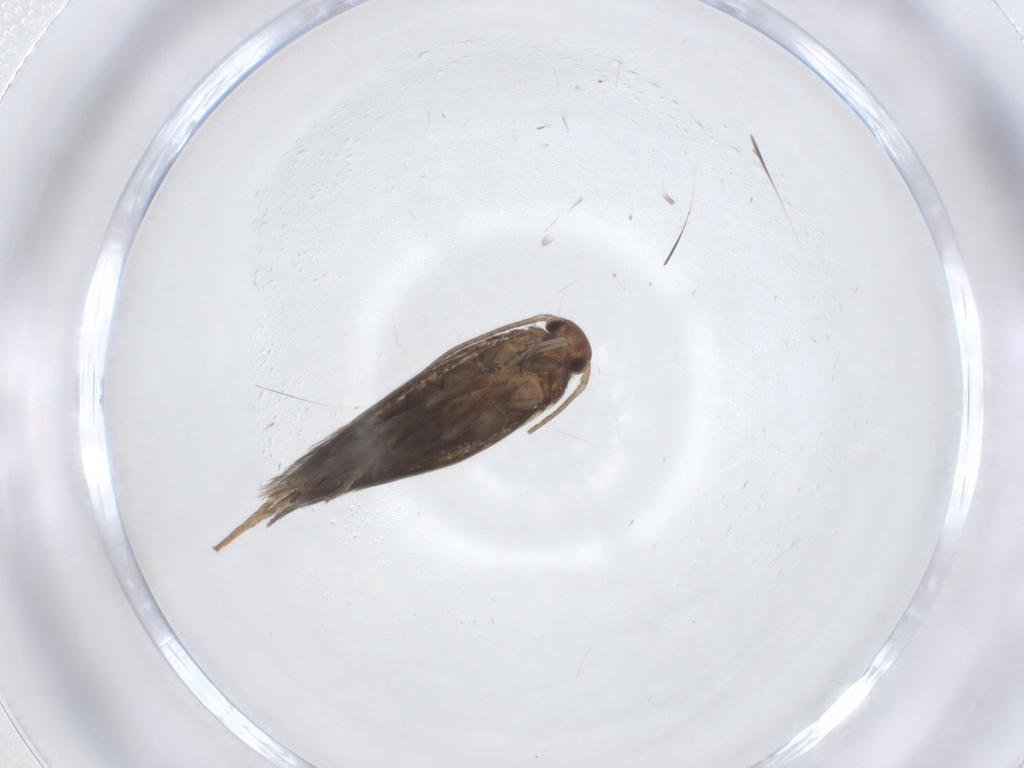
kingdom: Animalia
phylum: Arthropoda
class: Insecta
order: Lepidoptera
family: Elachistidae
